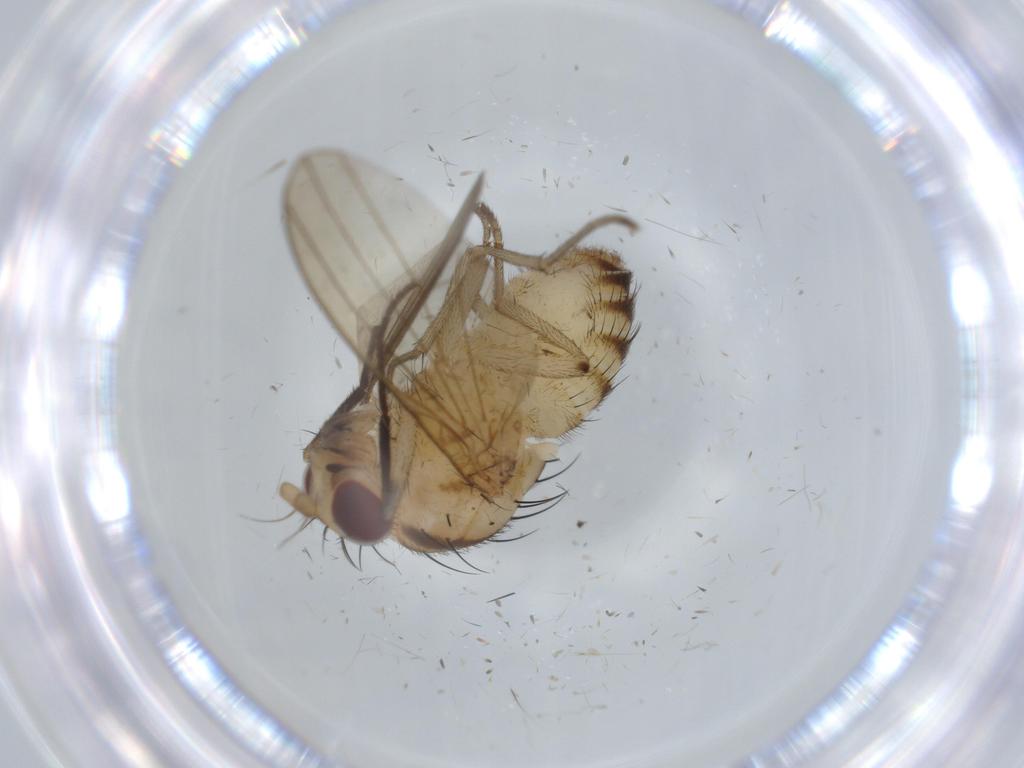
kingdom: Animalia
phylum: Arthropoda
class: Insecta
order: Diptera
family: Cecidomyiidae
